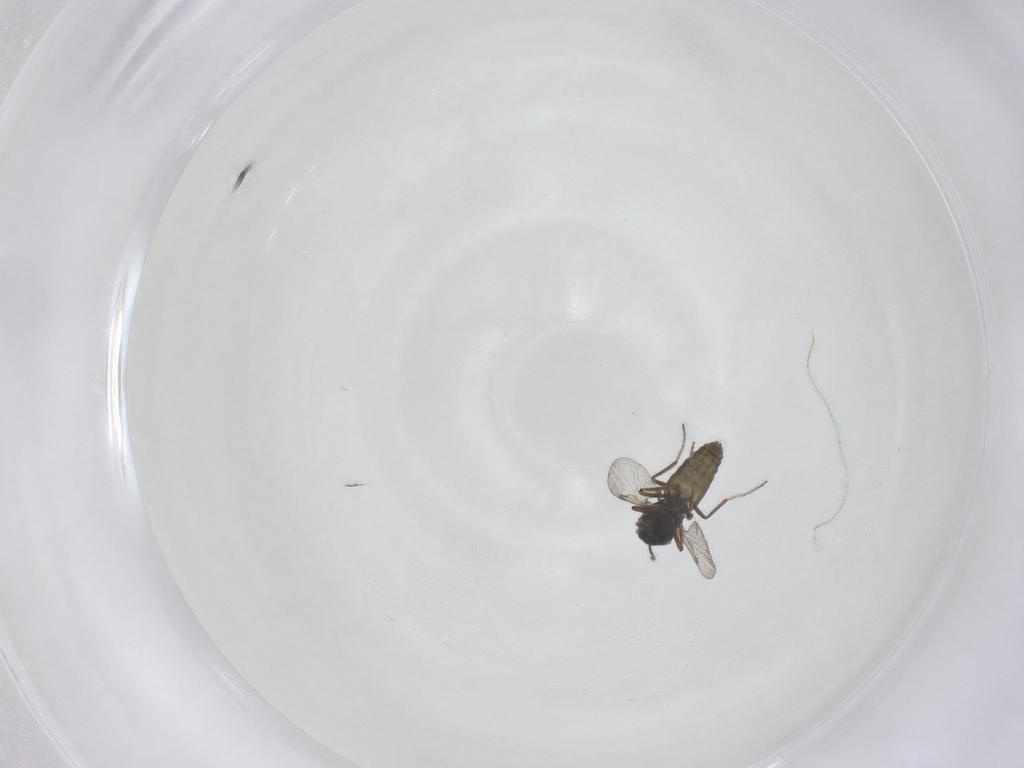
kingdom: Animalia
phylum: Arthropoda
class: Insecta
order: Diptera
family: Ceratopogonidae
